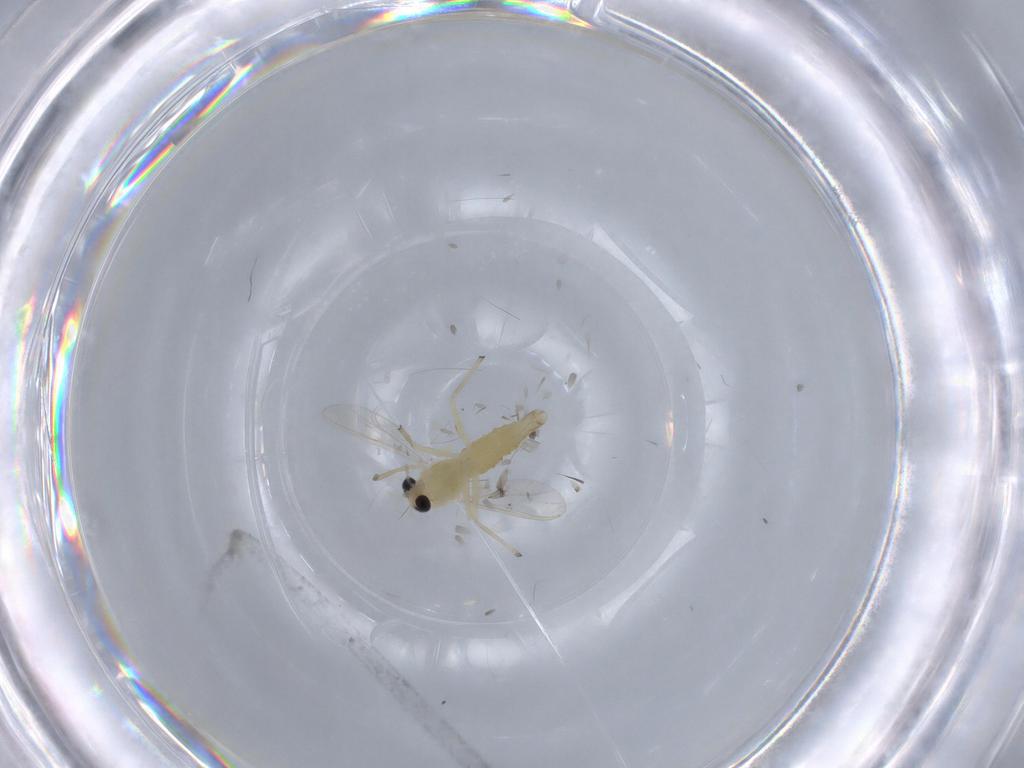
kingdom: Animalia
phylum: Arthropoda
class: Insecta
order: Diptera
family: Chironomidae
